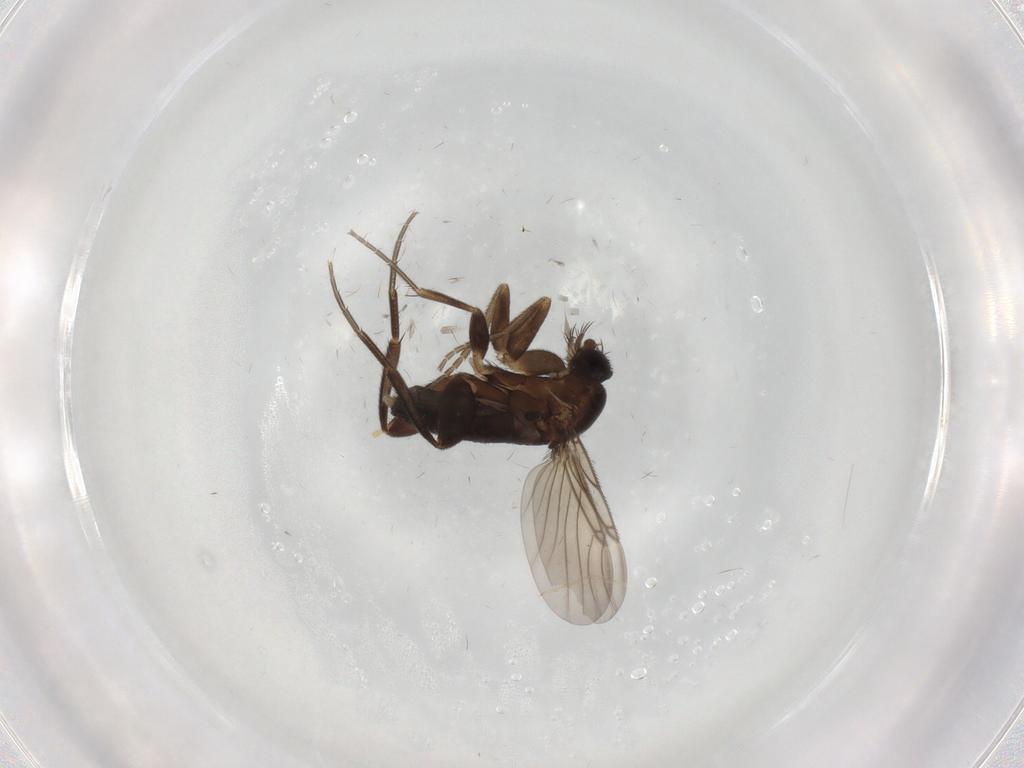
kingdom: Animalia
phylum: Arthropoda
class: Insecta
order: Diptera
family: Phoridae
